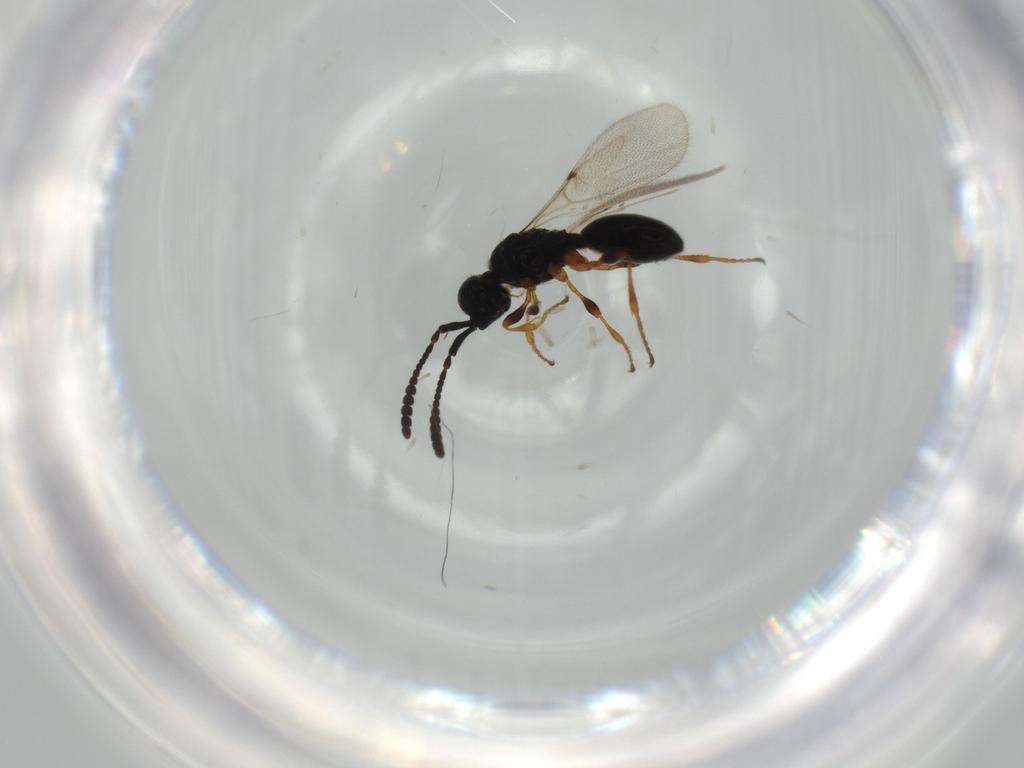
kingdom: Animalia
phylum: Arthropoda
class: Insecta
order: Hymenoptera
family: Diapriidae
